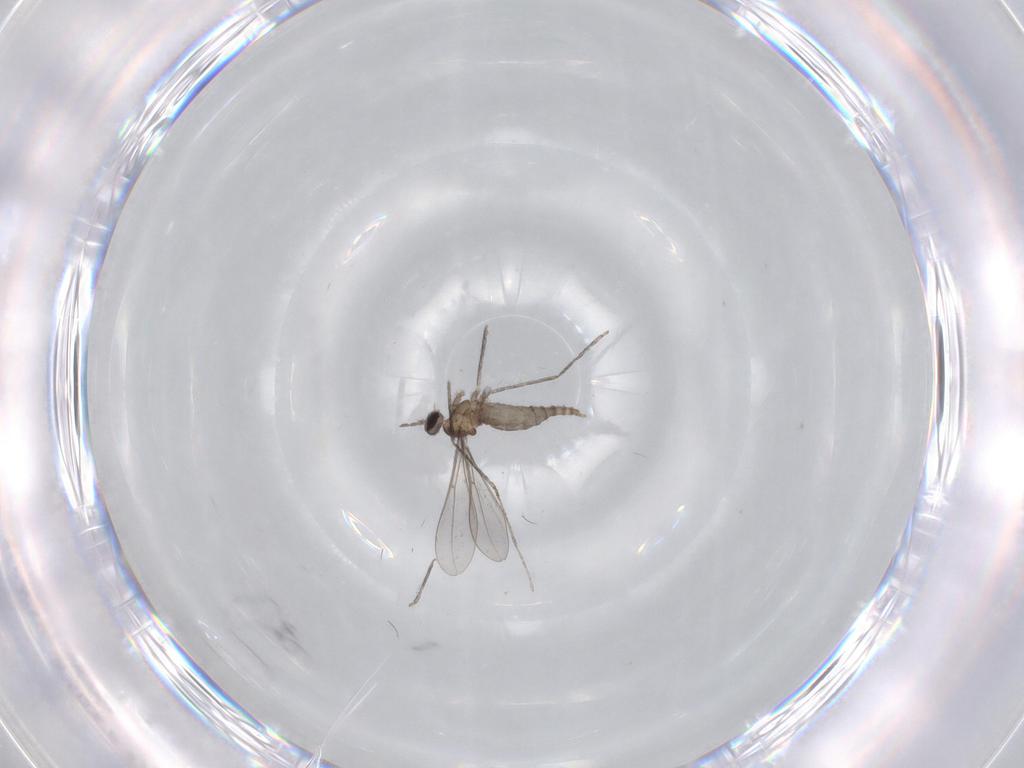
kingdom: Animalia
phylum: Arthropoda
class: Insecta
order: Diptera
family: Cecidomyiidae
